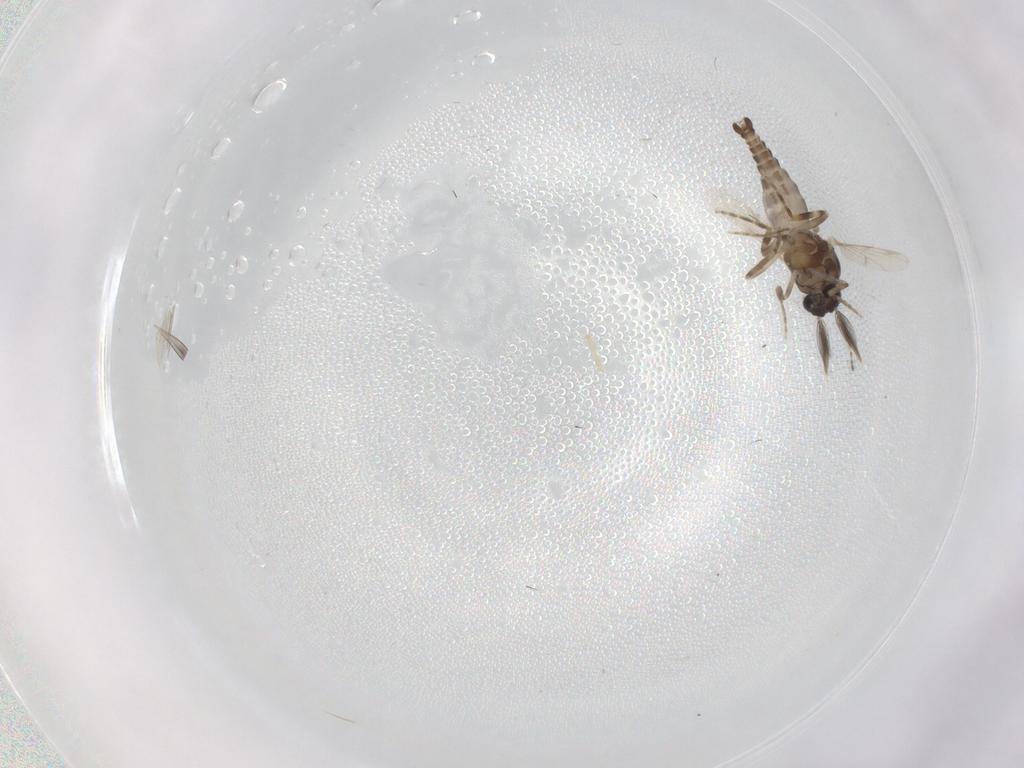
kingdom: Animalia
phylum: Arthropoda
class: Insecta
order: Diptera
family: Ceratopogonidae
